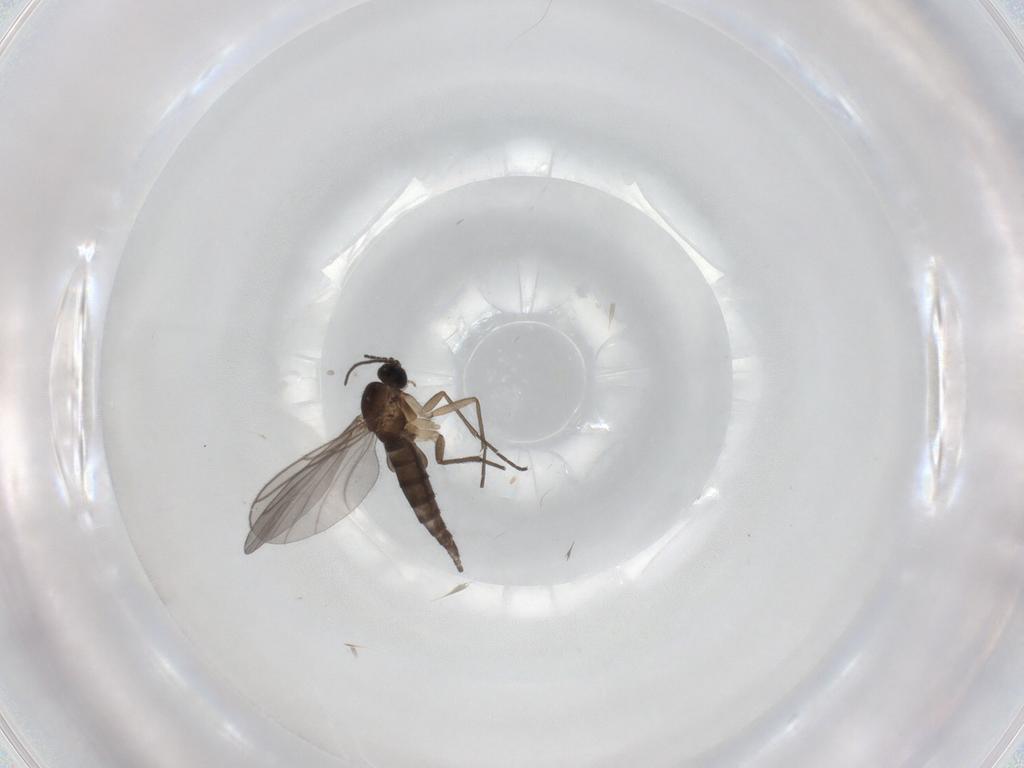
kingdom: Animalia
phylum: Arthropoda
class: Insecta
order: Diptera
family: Sciaridae
